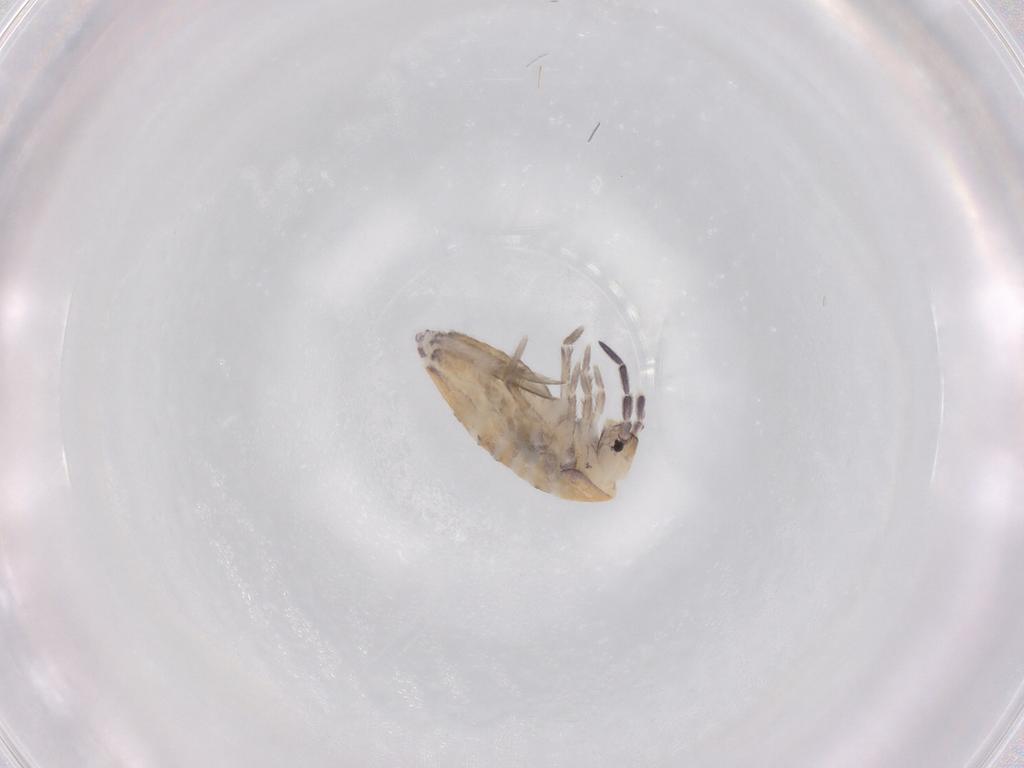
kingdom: Animalia
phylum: Arthropoda
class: Collembola
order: Entomobryomorpha
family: Entomobryidae
